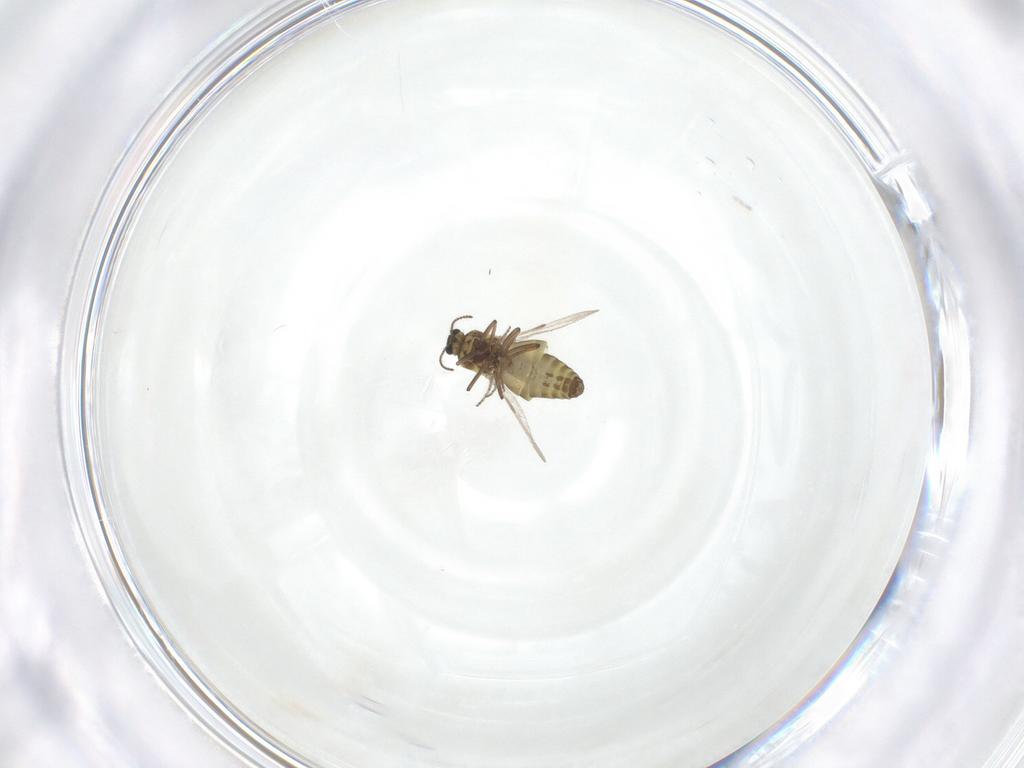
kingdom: Animalia
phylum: Arthropoda
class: Insecta
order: Diptera
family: Ceratopogonidae
